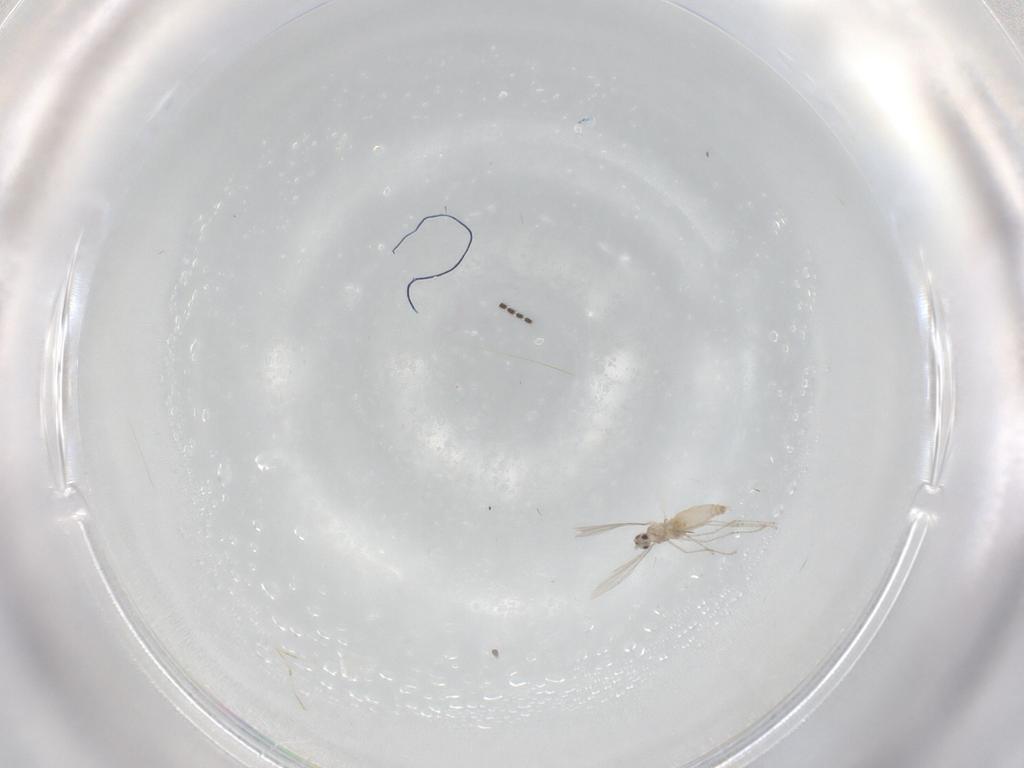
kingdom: Animalia
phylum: Arthropoda
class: Insecta
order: Diptera
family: Cecidomyiidae
